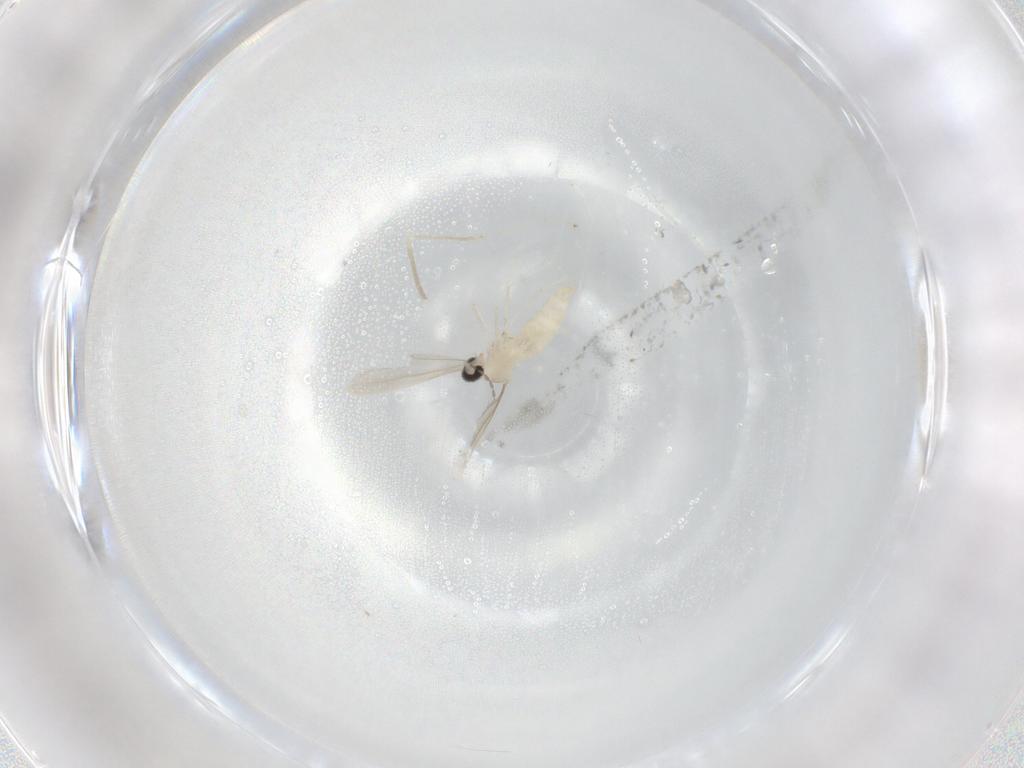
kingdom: Animalia
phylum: Arthropoda
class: Insecta
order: Diptera
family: Cecidomyiidae
